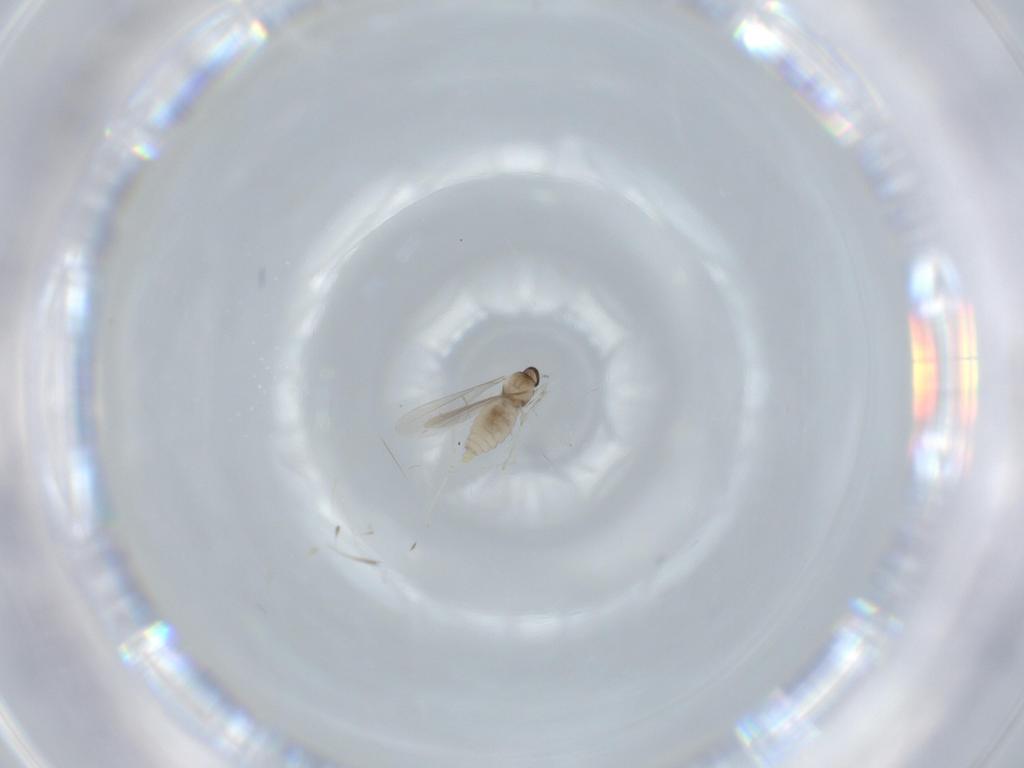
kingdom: Animalia
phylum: Arthropoda
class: Insecta
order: Diptera
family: Cecidomyiidae
